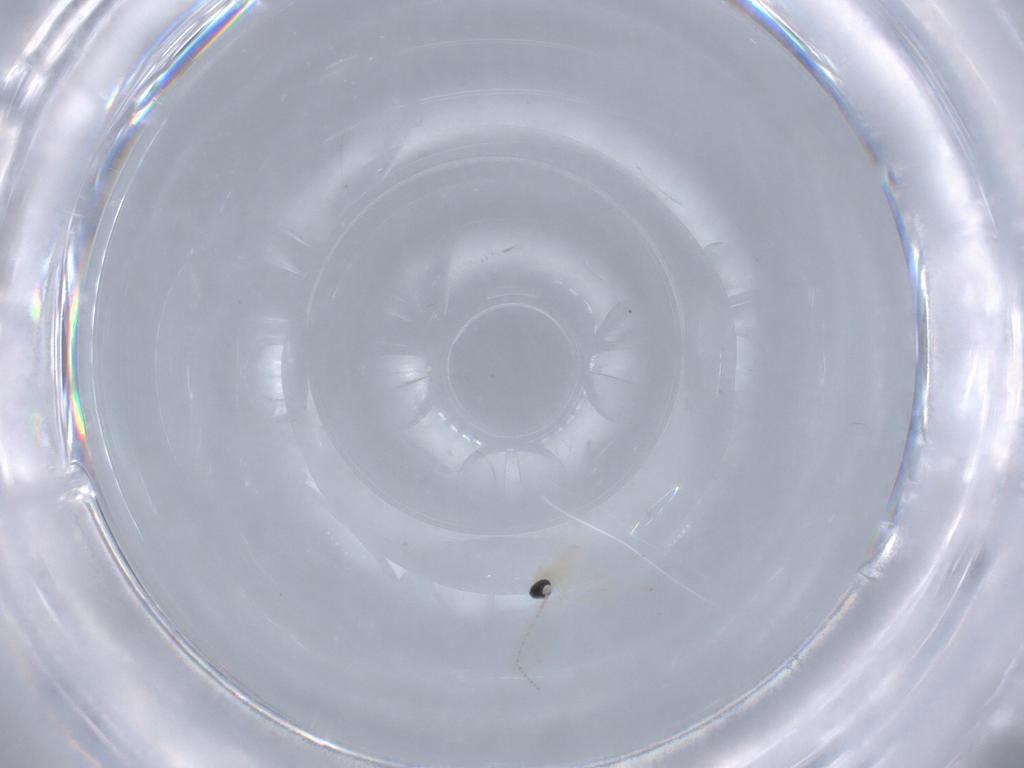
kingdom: Animalia
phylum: Arthropoda
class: Insecta
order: Diptera
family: Cecidomyiidae
